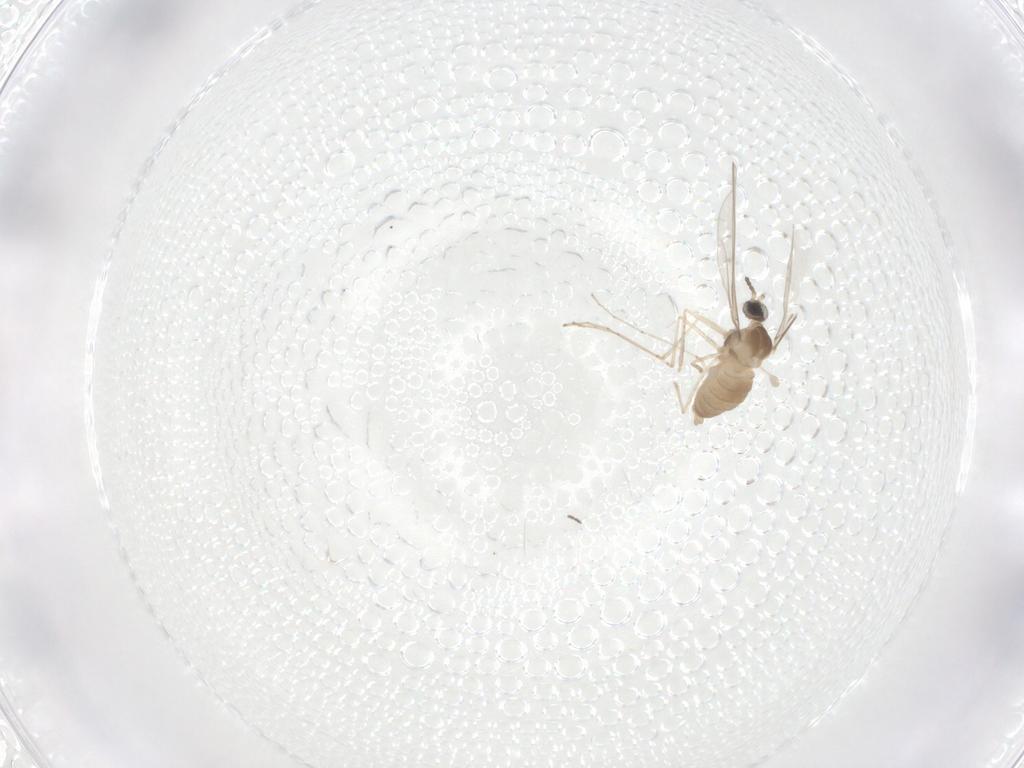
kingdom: Animalia
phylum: Arthropoda
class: Insecta
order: Diptera
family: Cecidomyiidae
